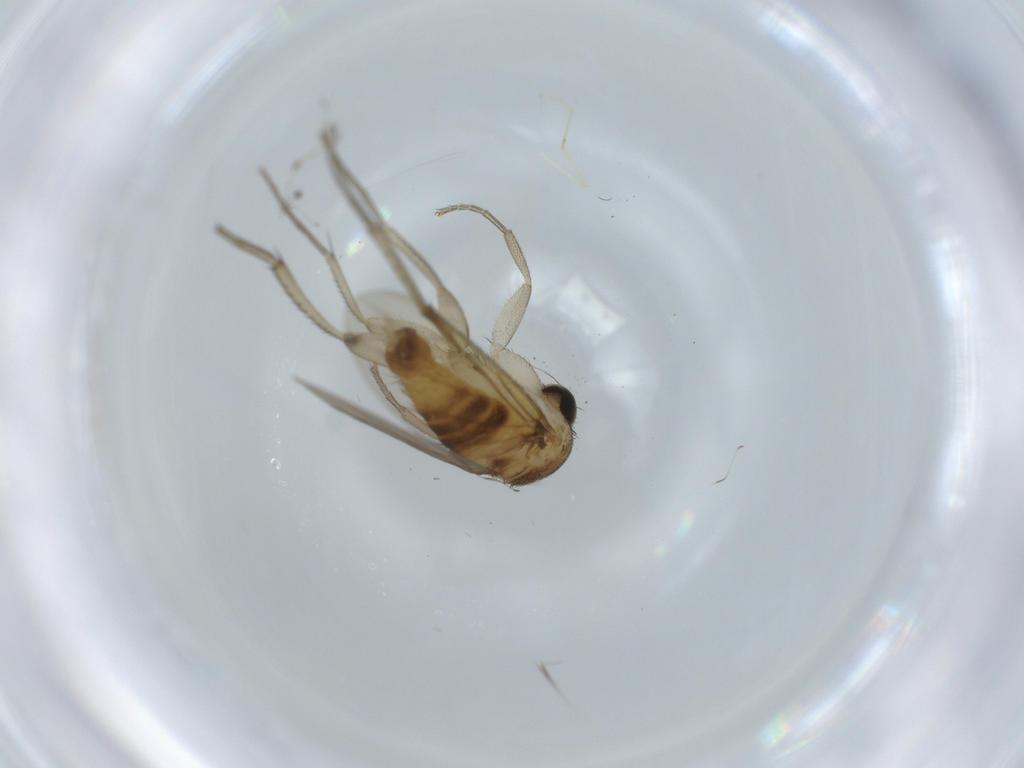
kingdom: Animalia
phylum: Arthropoda
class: Insecta
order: Diptera
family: Phoridae
